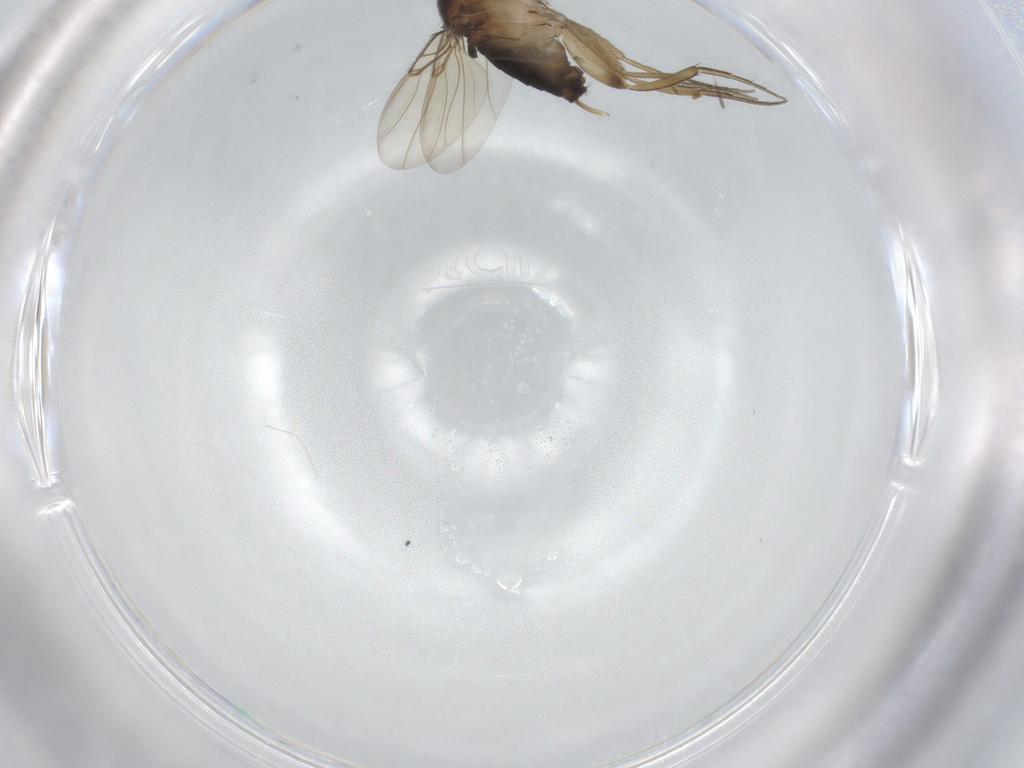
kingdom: Animalia
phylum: Arthropoda
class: Insecta
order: Diptera
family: Phoridae
